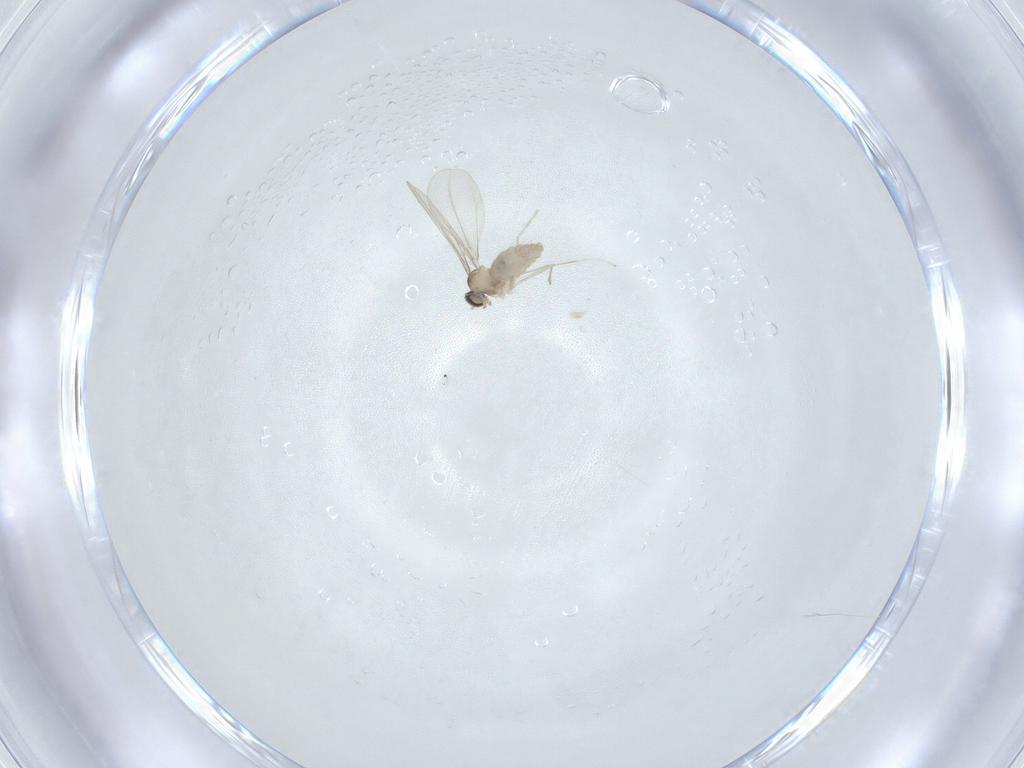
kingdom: Animalia
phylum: Arthropoda
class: Insecta
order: Diptera
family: Cecidomyiidae
